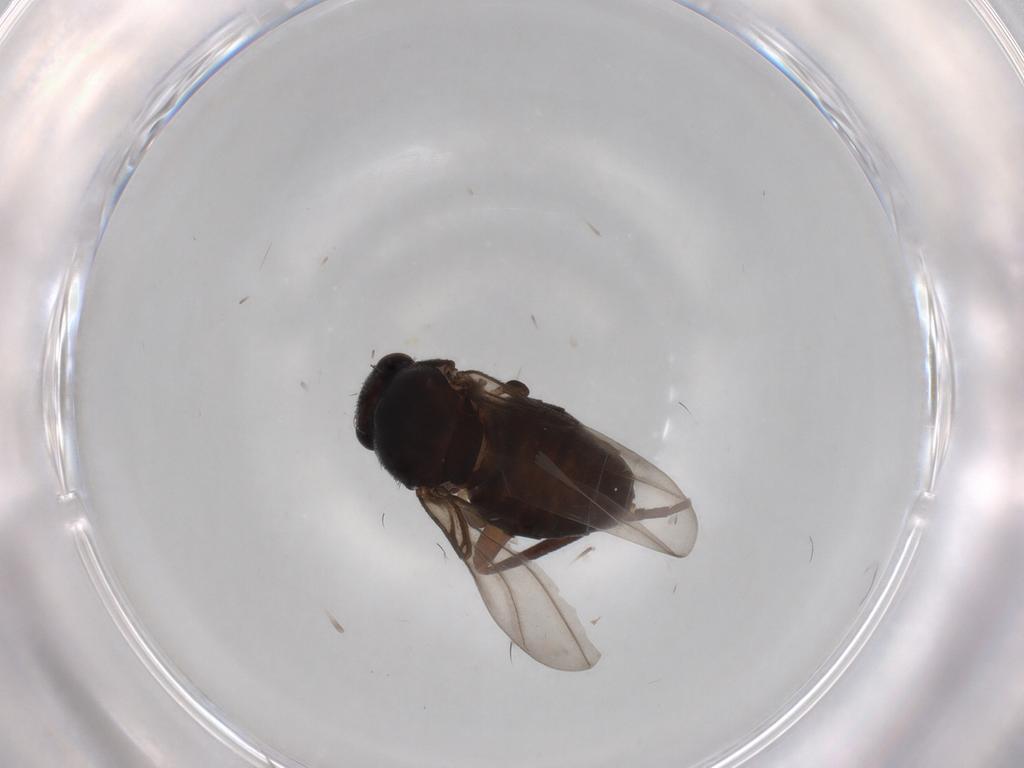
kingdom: Animalia
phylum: Arthropoda
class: Insecta
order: Diptera
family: Phoridae
